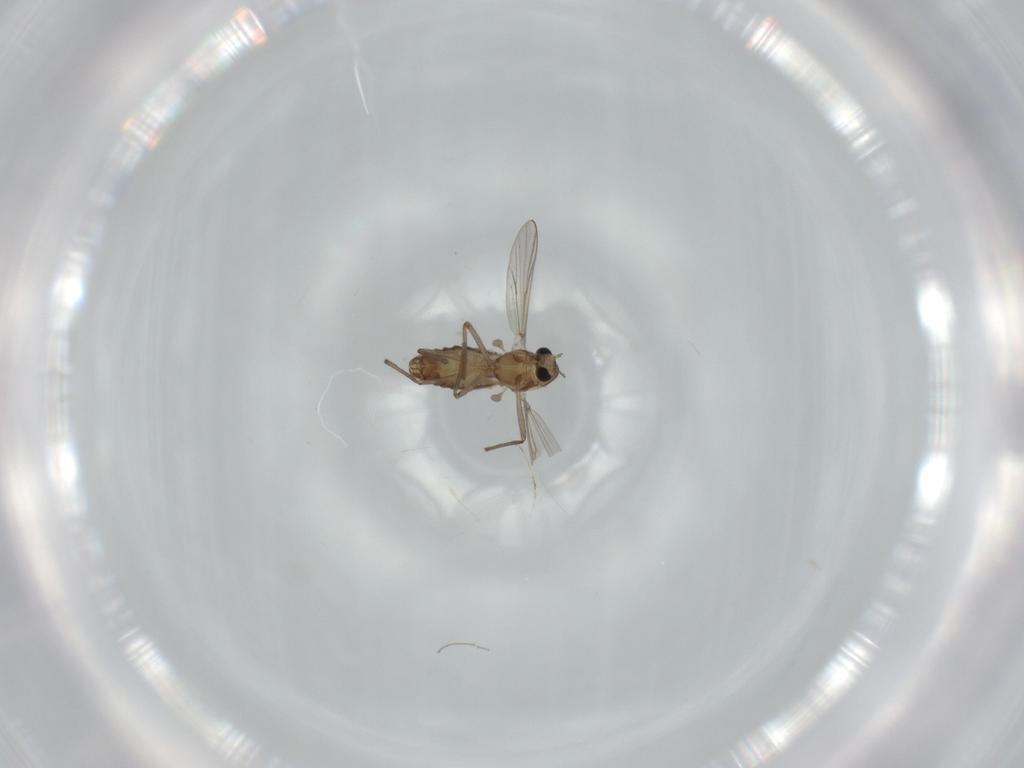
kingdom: Animalia
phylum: Arthropoda
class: Insecta
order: Diptera
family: Chironomidae
